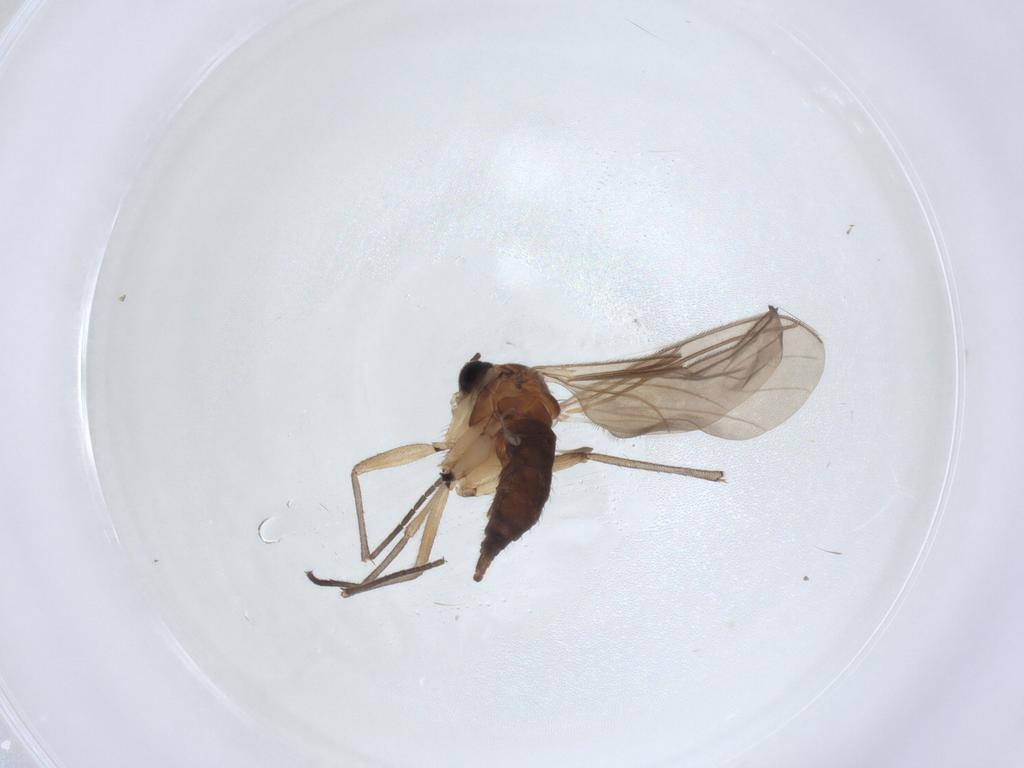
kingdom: Animalia
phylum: Arthropoda
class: Insecta
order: Diptera
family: Sciaridae
